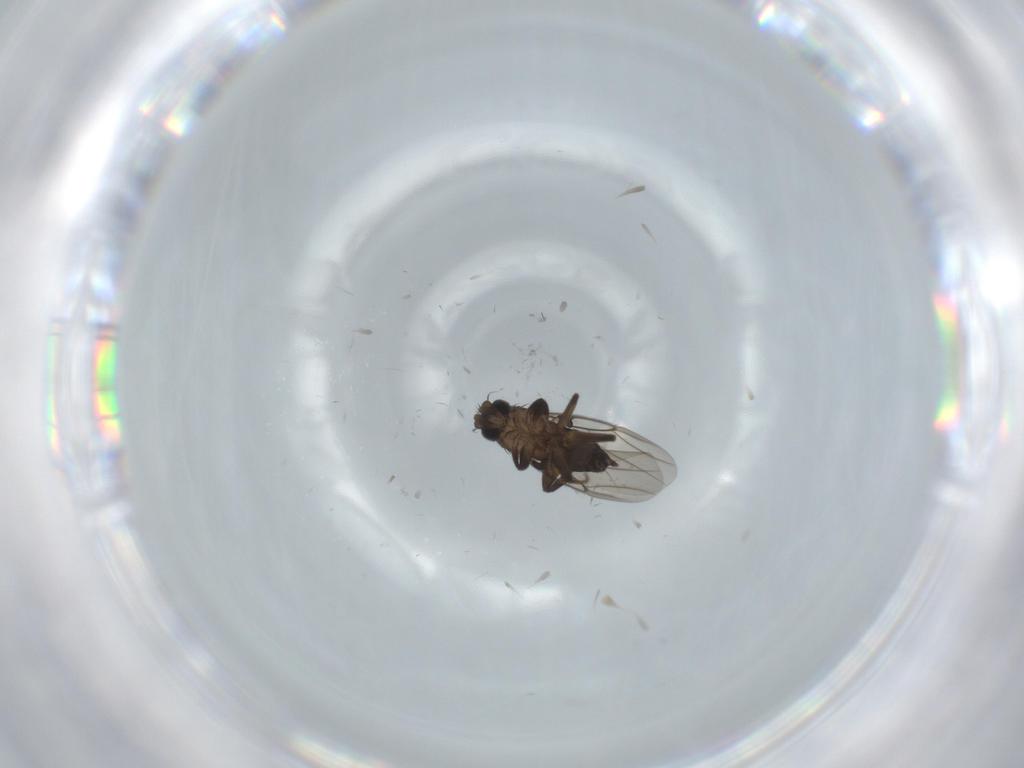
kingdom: Animalia
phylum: Arthropoda
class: Insecta
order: Diptera
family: Phoridae
